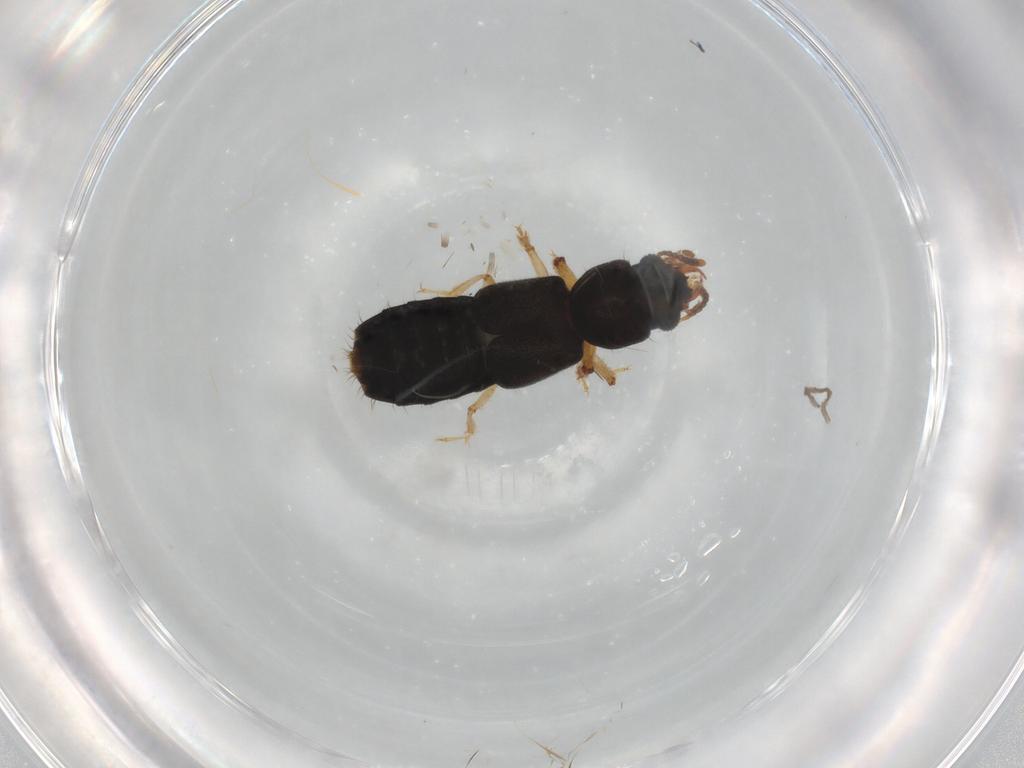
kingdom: Animalia
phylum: Arthropoda
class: Insecta
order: Coleoptera
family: Staphylinidae
